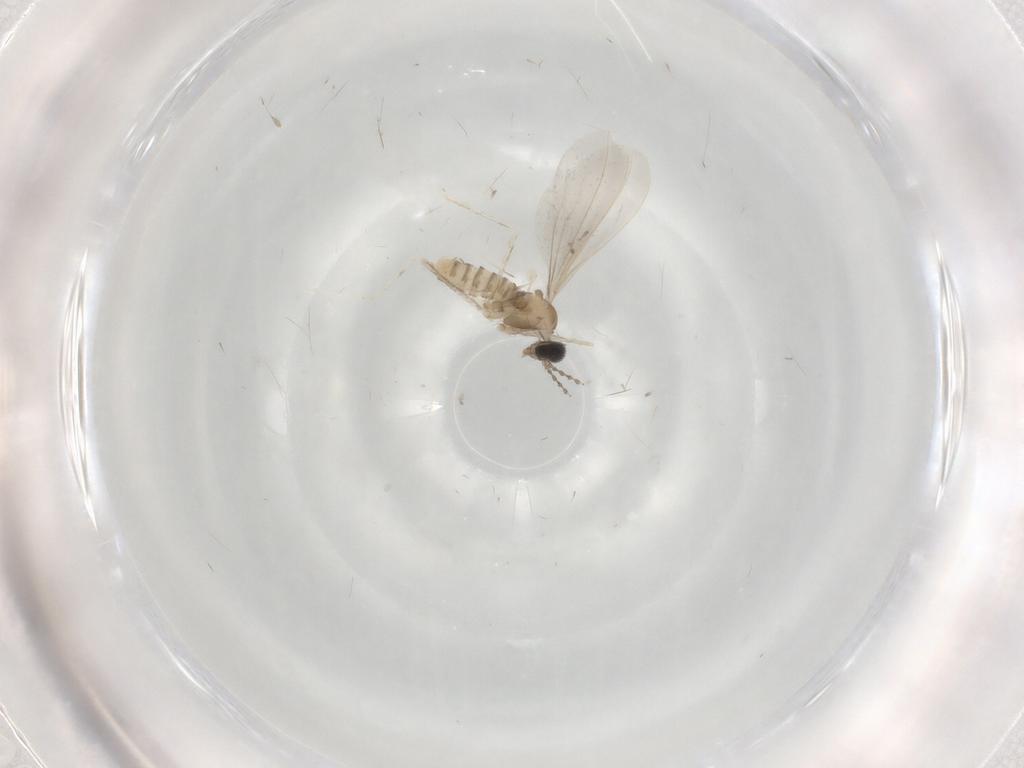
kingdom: Animalia
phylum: Arthropoda
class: Insecta
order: Diptera
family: Cecidomyiidae
